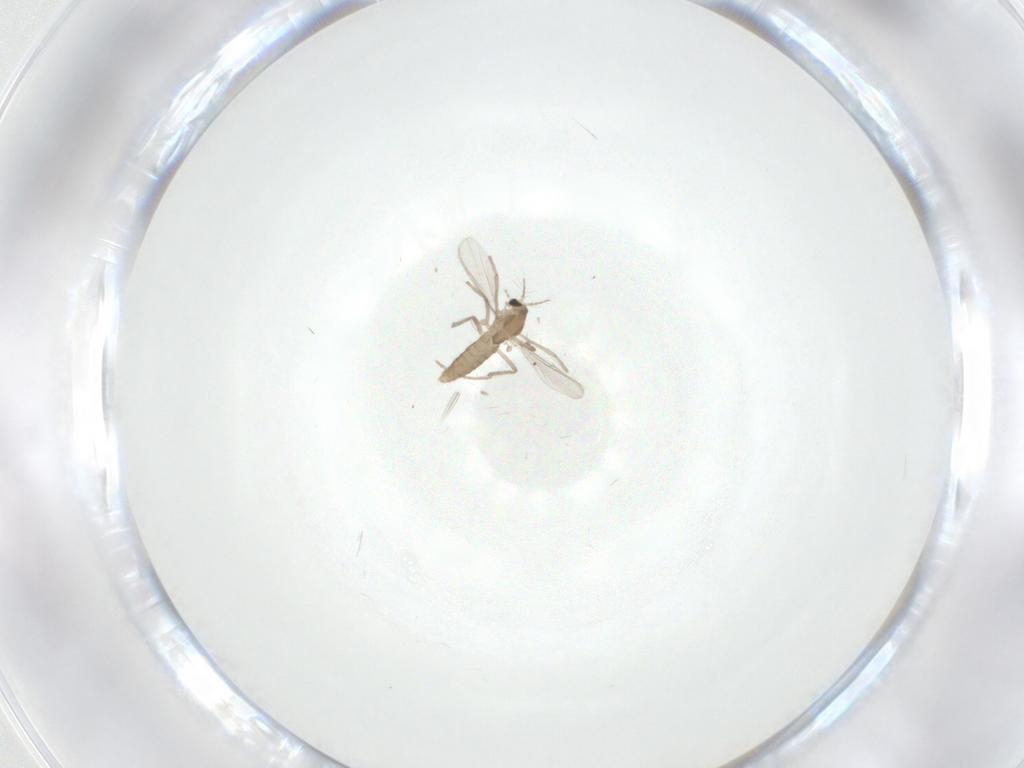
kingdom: Animalia
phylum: Arthropoda
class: Insecta
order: Diptera
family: Chironomidae
